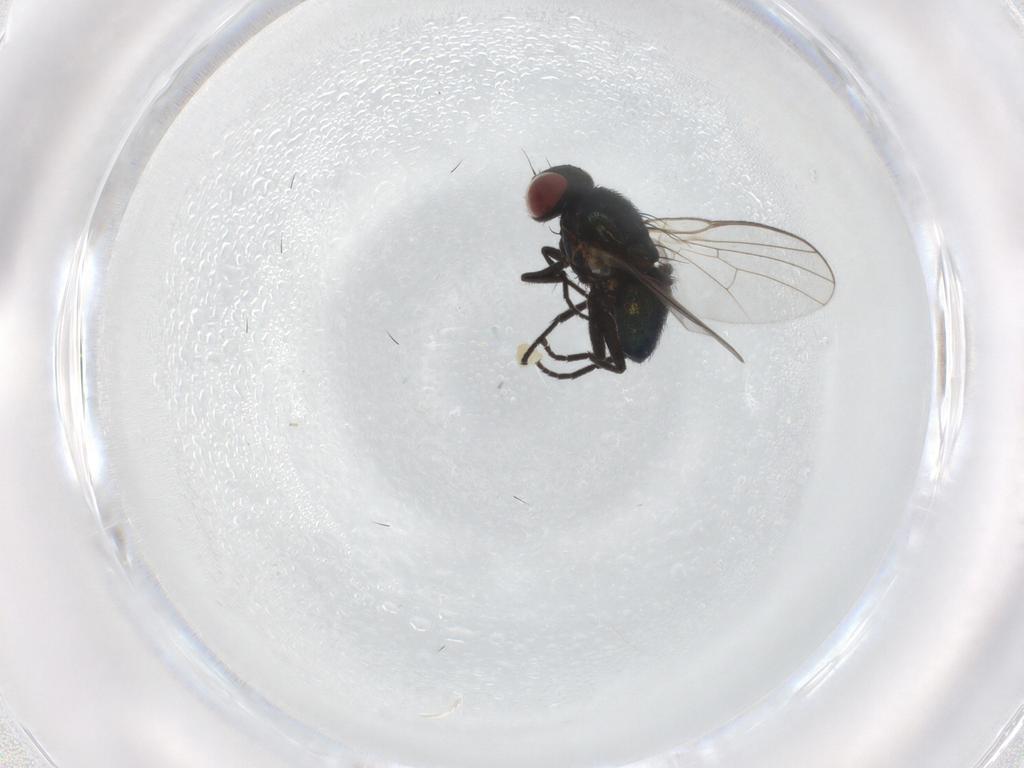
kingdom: Animalia
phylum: Arthropoda
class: Insecta
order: Diptera
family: Agromyzidae
